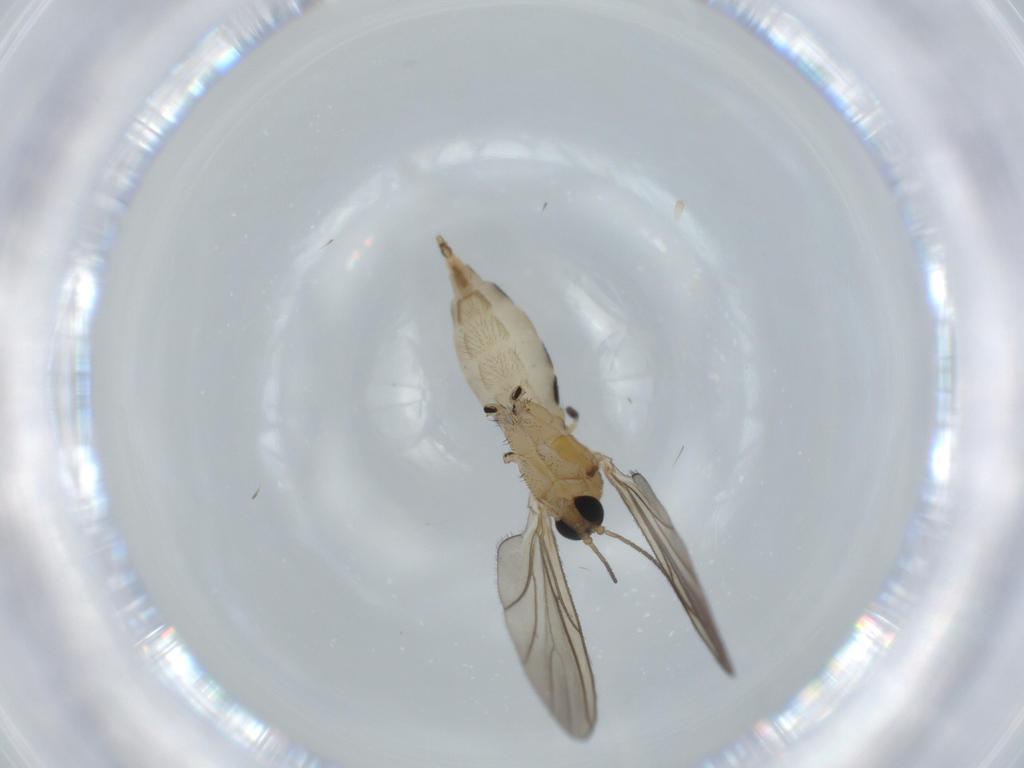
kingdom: Animalia
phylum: Arthropoda
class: Insecta
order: Diptera
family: Sciaridae
